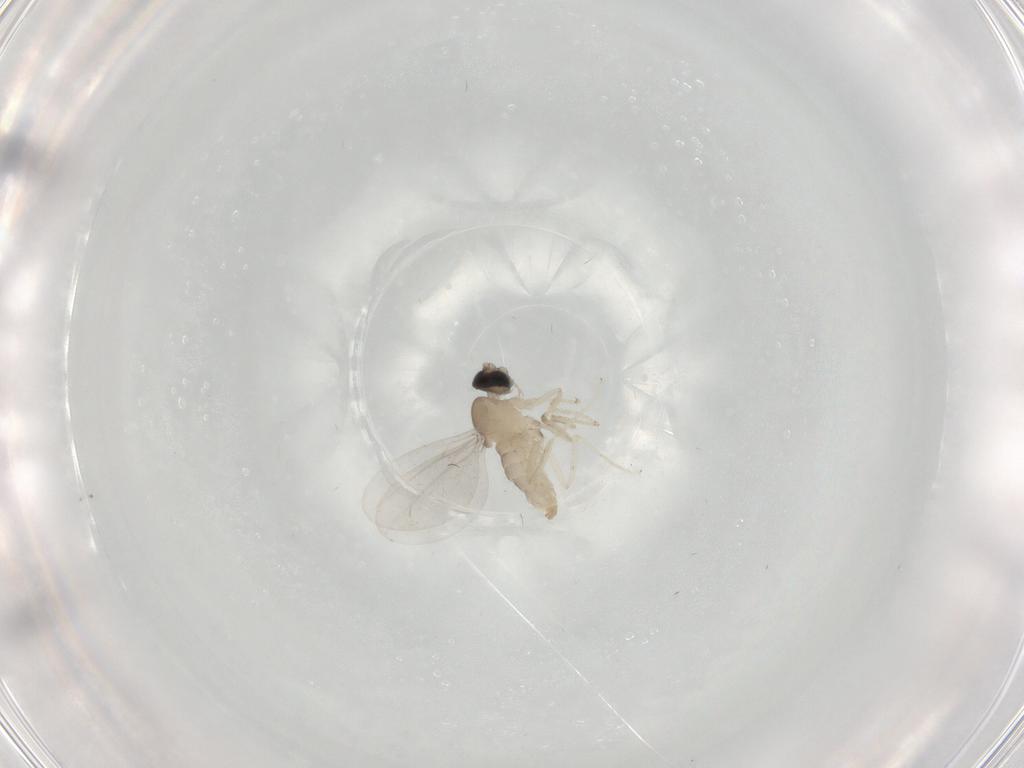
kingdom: Animalia
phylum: Arthropoda
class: Insecta
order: Diptera
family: Cecidomyiidae
